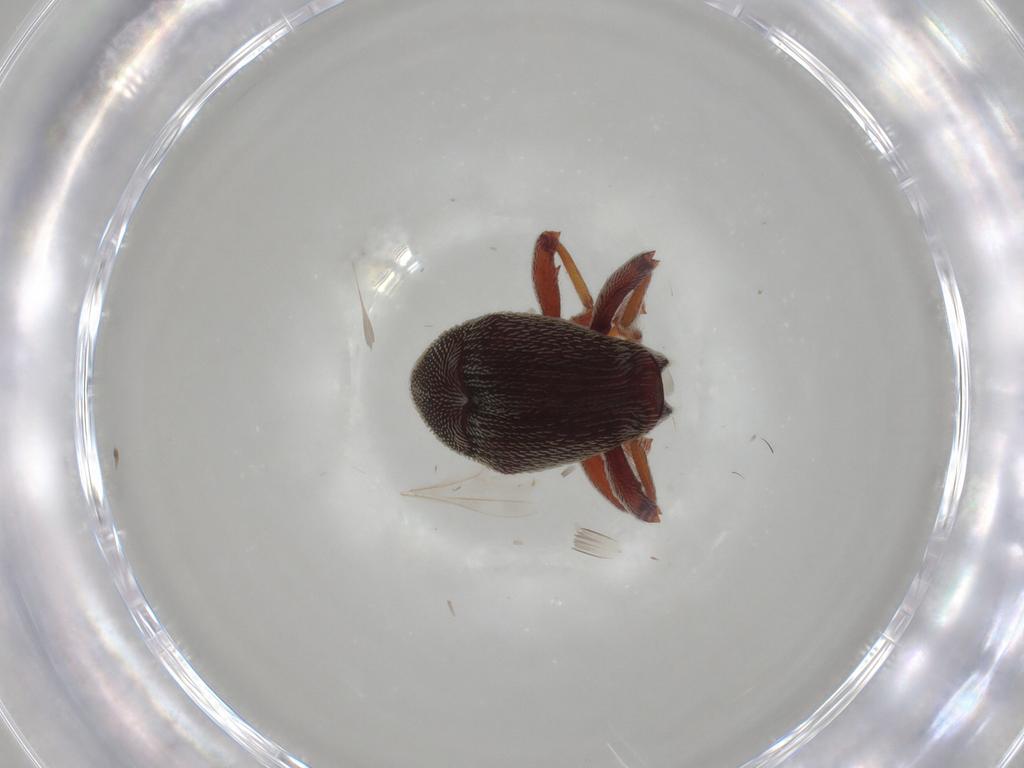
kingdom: Animalia
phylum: Arthropoda
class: Insecta
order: Coleoptera
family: Curculionidae
